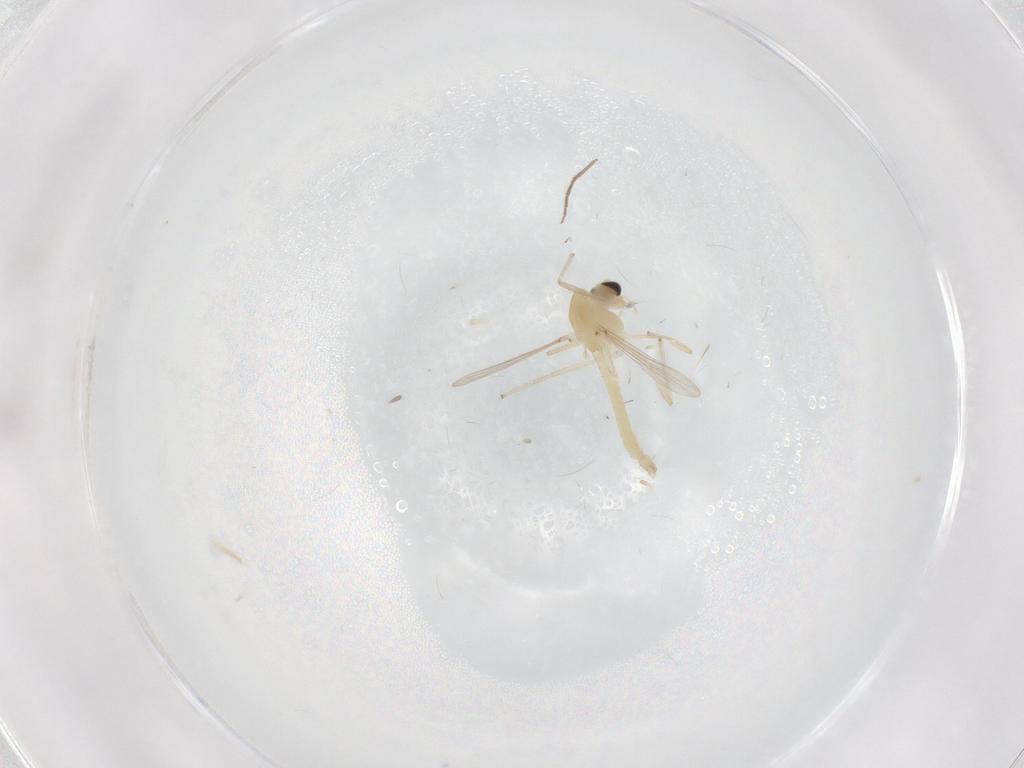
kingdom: Animalia
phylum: Arthropoda
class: Insecta
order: Diptera
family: Chironomidae
